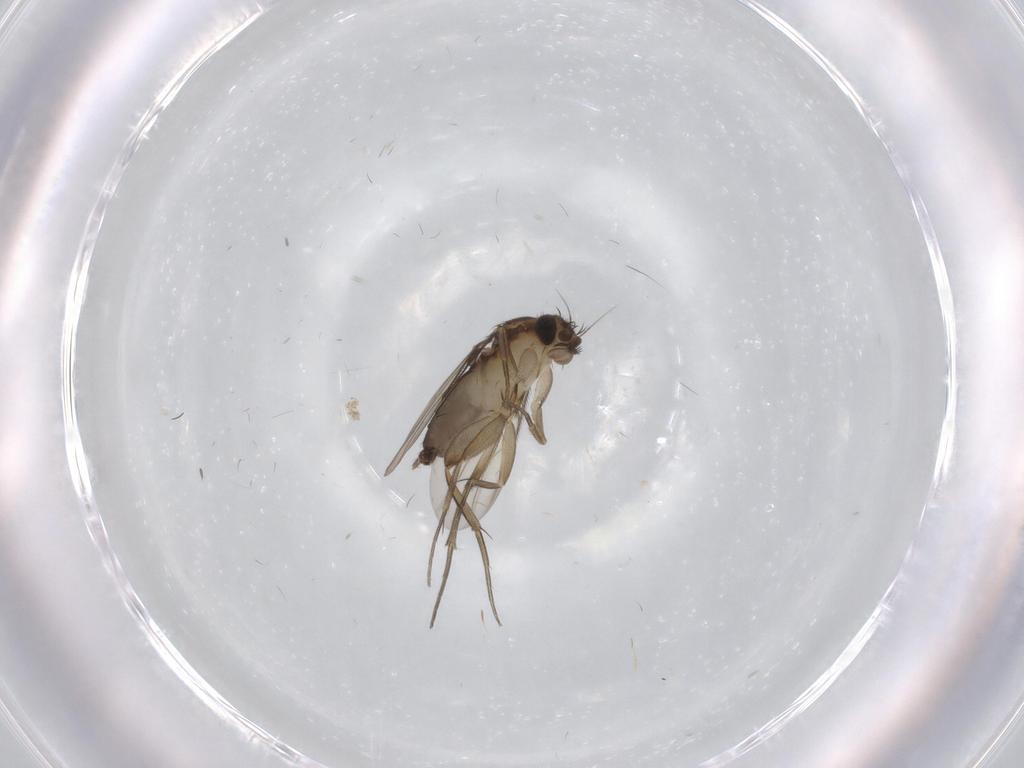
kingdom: Animalia
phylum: Arthropoda
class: Insecta
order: Diptera
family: Phoridae
